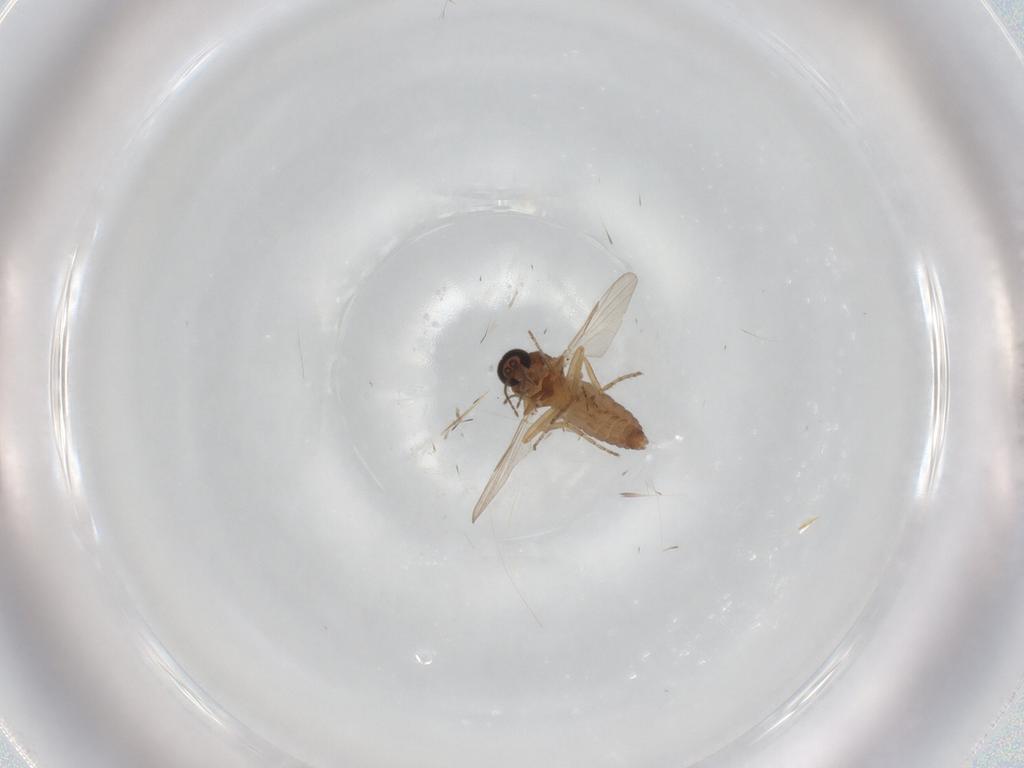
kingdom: Animalia
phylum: Arthropoda
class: Insecta
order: Diptera
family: Ceratopogonidae
